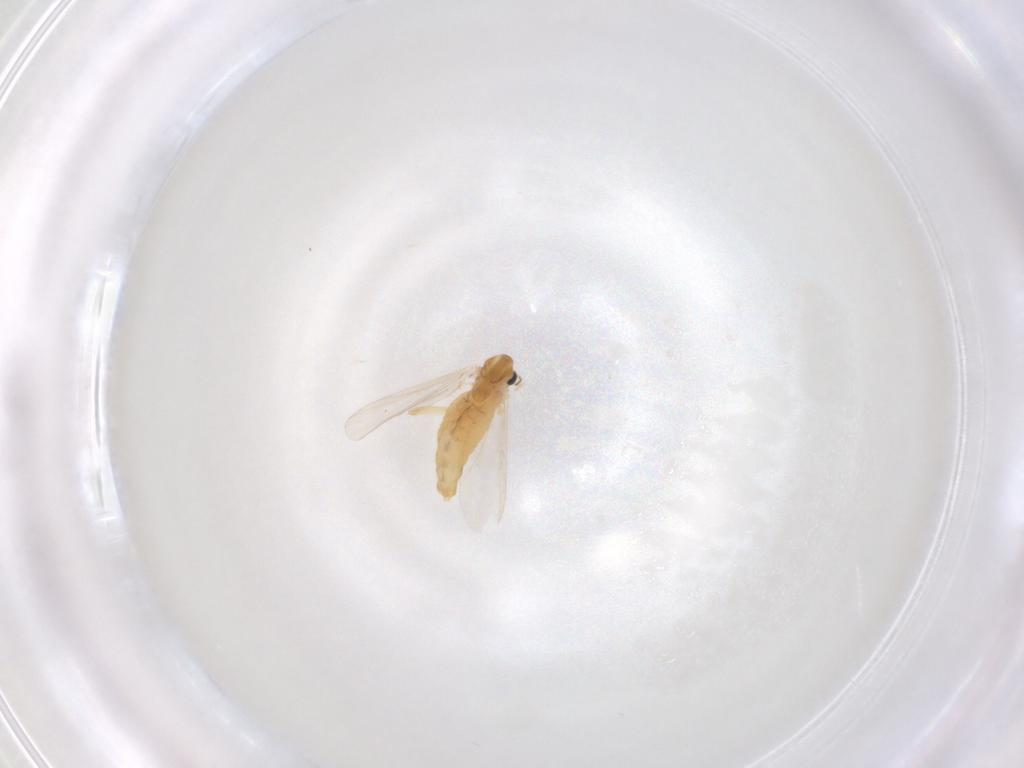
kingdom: Animalia
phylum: Arthropoda
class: Insecta
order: Diptera
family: Chironomidae
